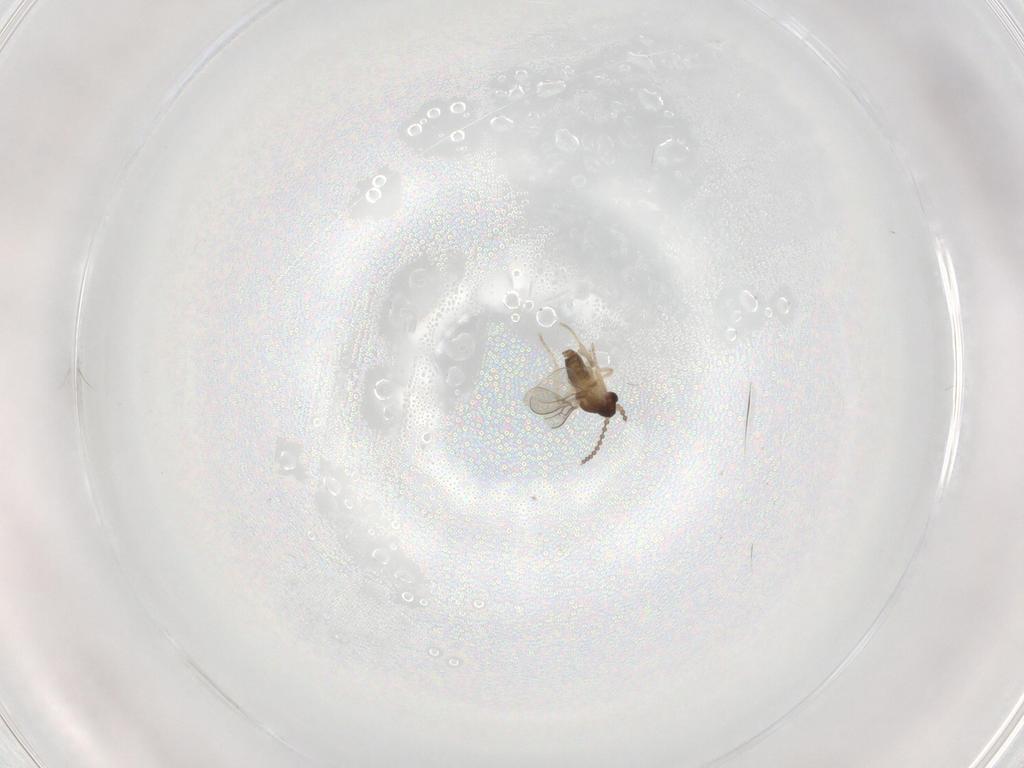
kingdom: Animalia
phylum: Arthropoda
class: Insecta
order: Diptera
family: Cecidomyiidae
